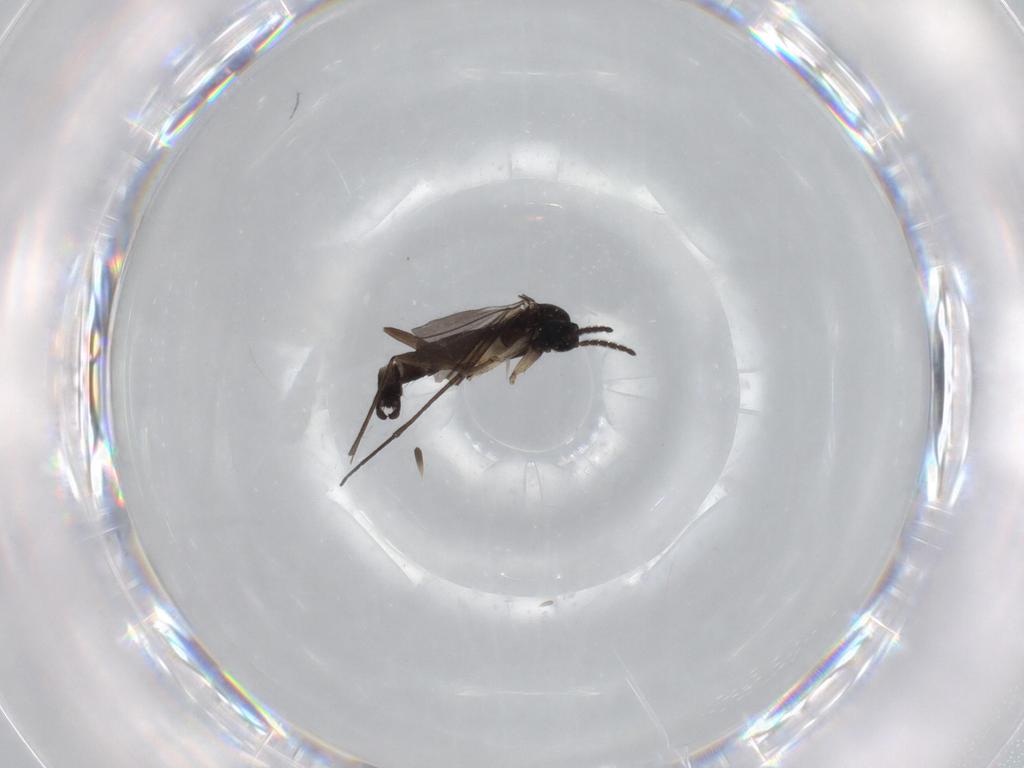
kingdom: Animalia
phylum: Arthropoda
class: Insecta
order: Diptera
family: Sciaridae
